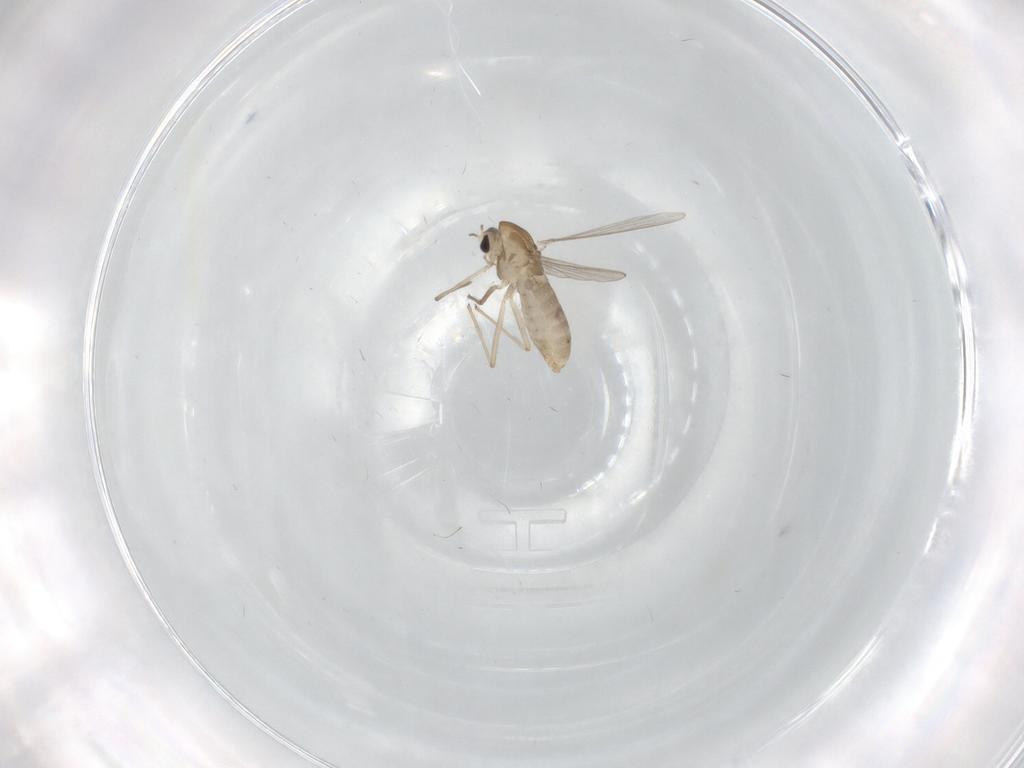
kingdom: Animalia
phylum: Arthropoda
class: Insecta
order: Diptera
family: Chironomidae
